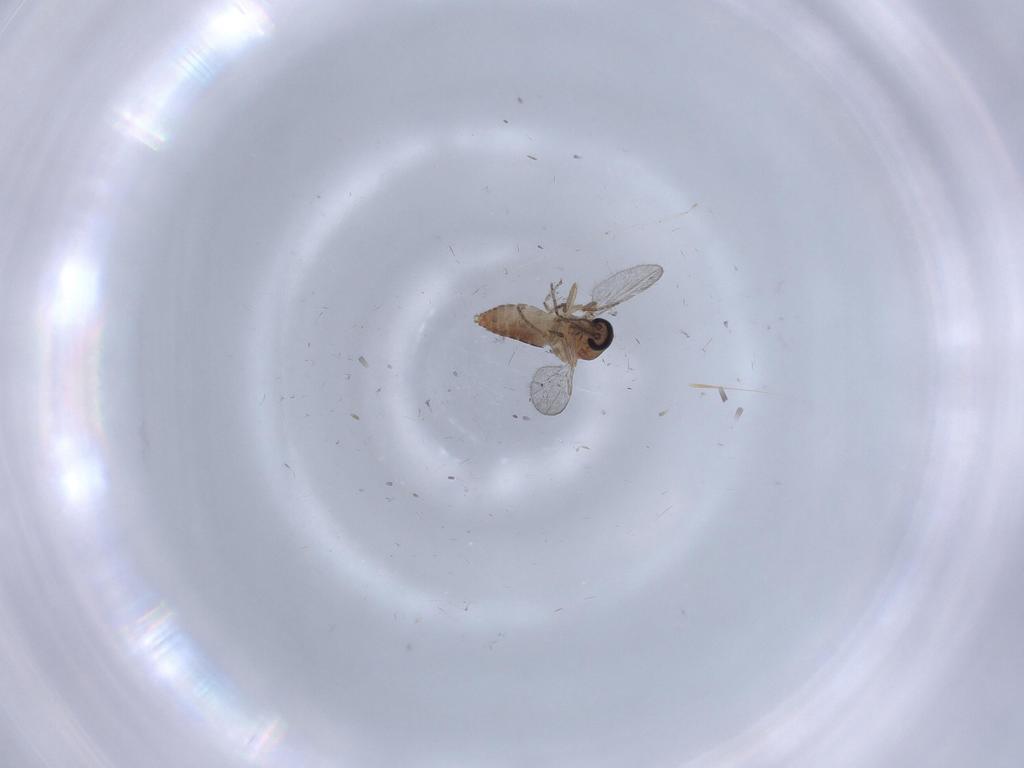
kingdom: Animalia
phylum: Arthropoda
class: Insecta
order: Diptera
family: Ceratopogonidae
